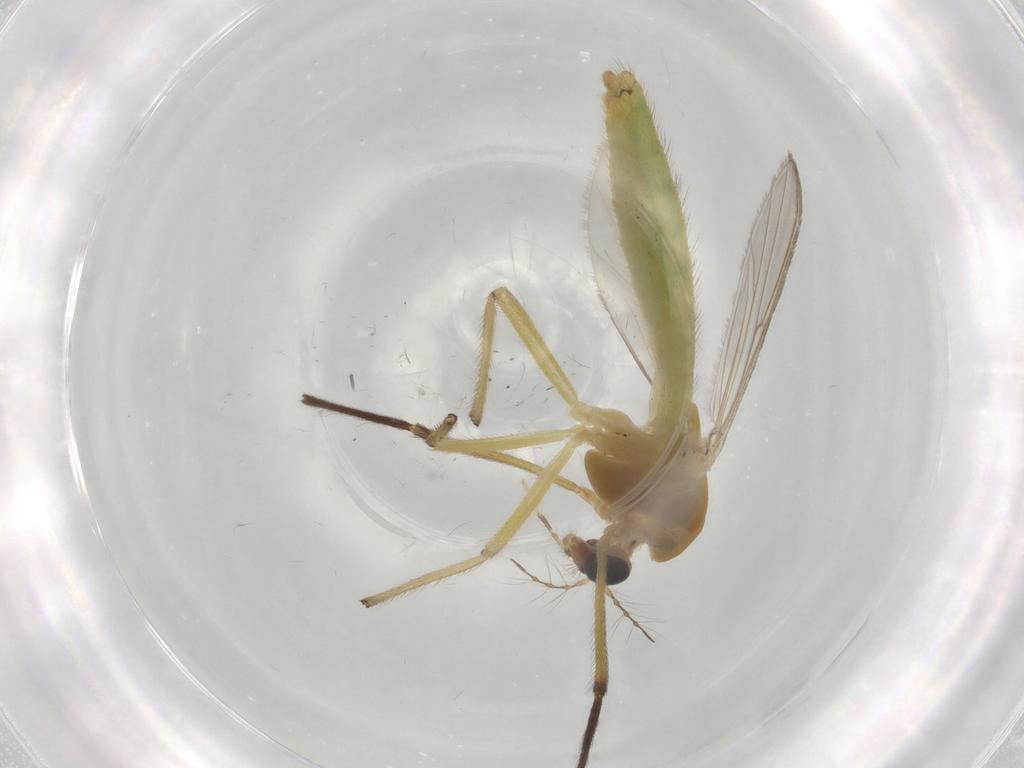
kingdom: Animalia
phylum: Arthropoda
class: Insecta
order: Diptera
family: Chironomidae
